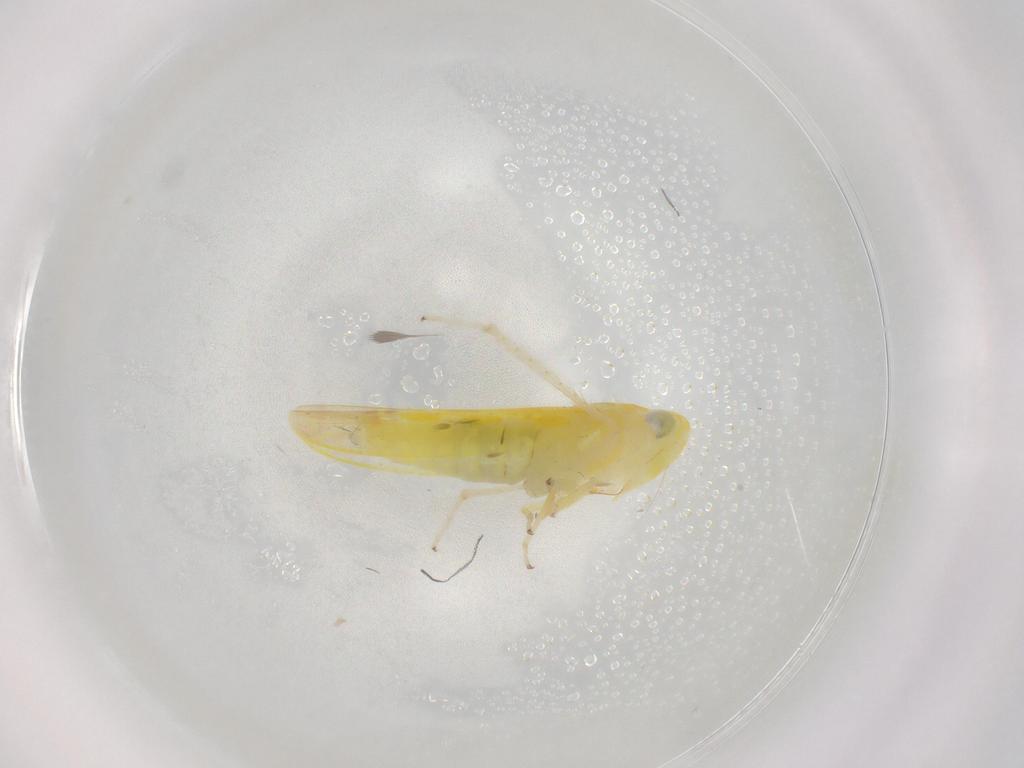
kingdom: Animalia
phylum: Arthropoda
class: Insecta
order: Hemiptera
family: Cicadellidae
